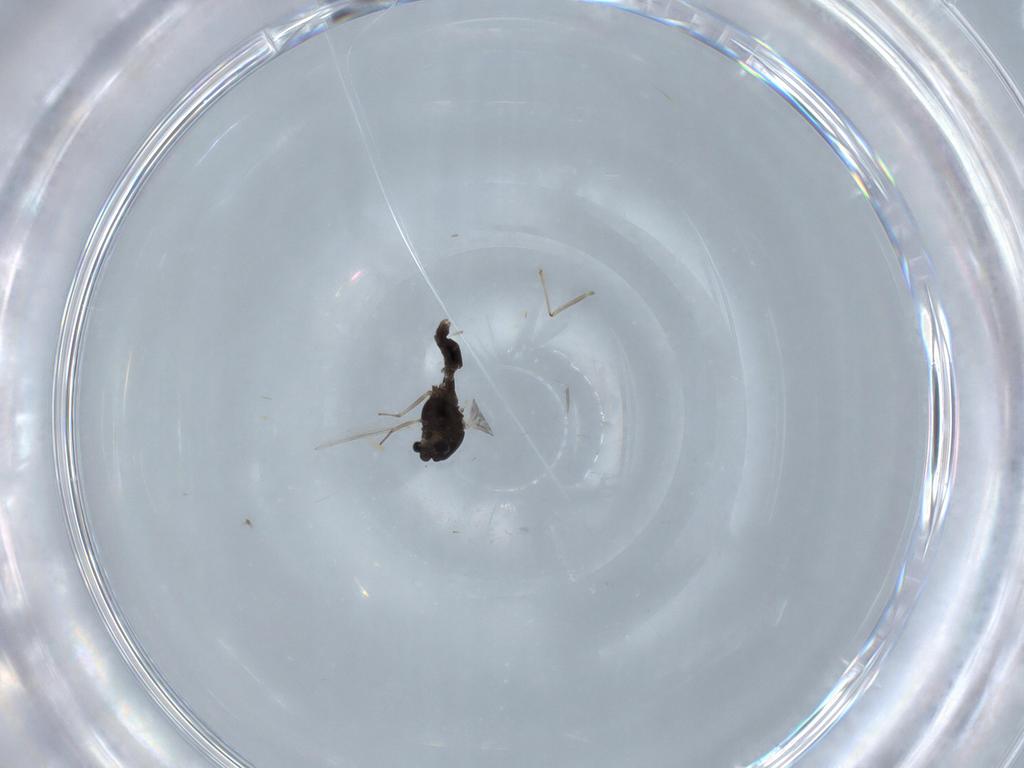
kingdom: Animalia
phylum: Arthropoda
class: Insecta
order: Diptera
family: Chironomidae
